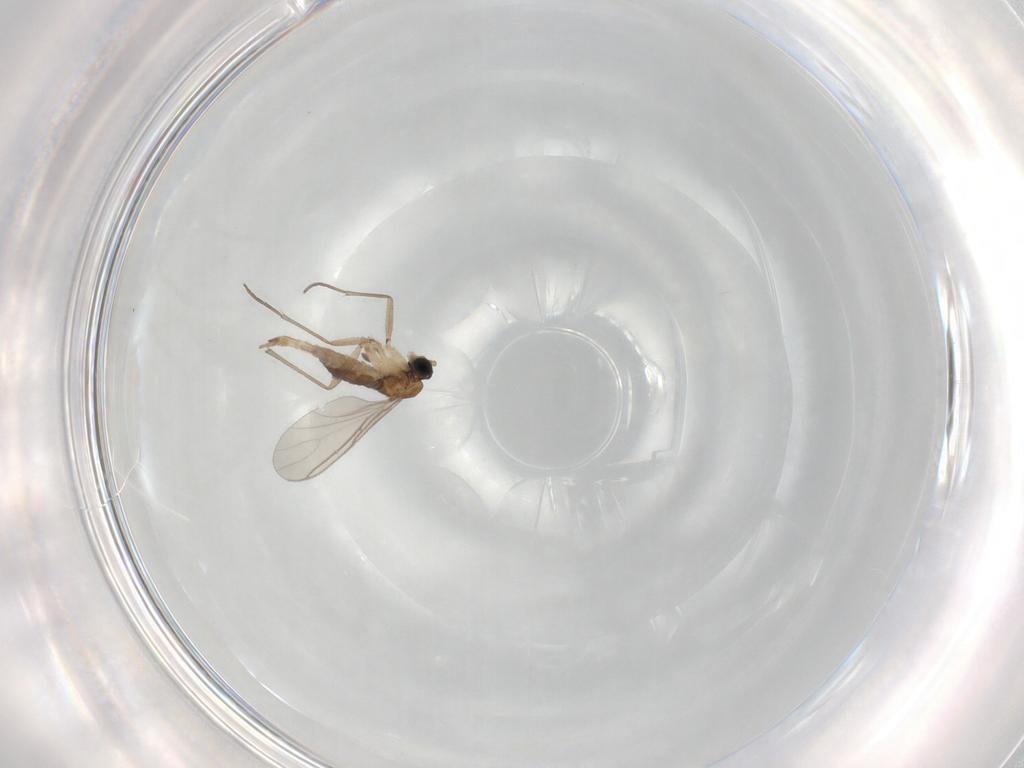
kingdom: Animalia
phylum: Arthropoda
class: Insecta
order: Diptera
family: Sciaridae
